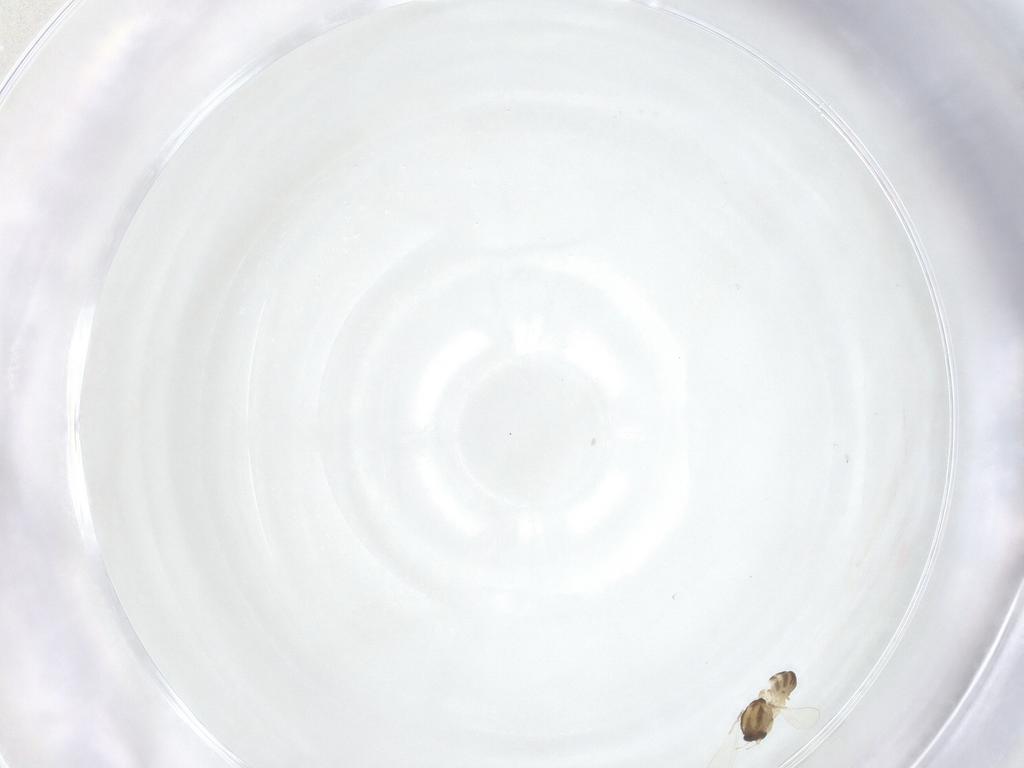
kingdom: Animalia
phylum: Arthropoda
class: Insecta
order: Diptera
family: Chironomidae
